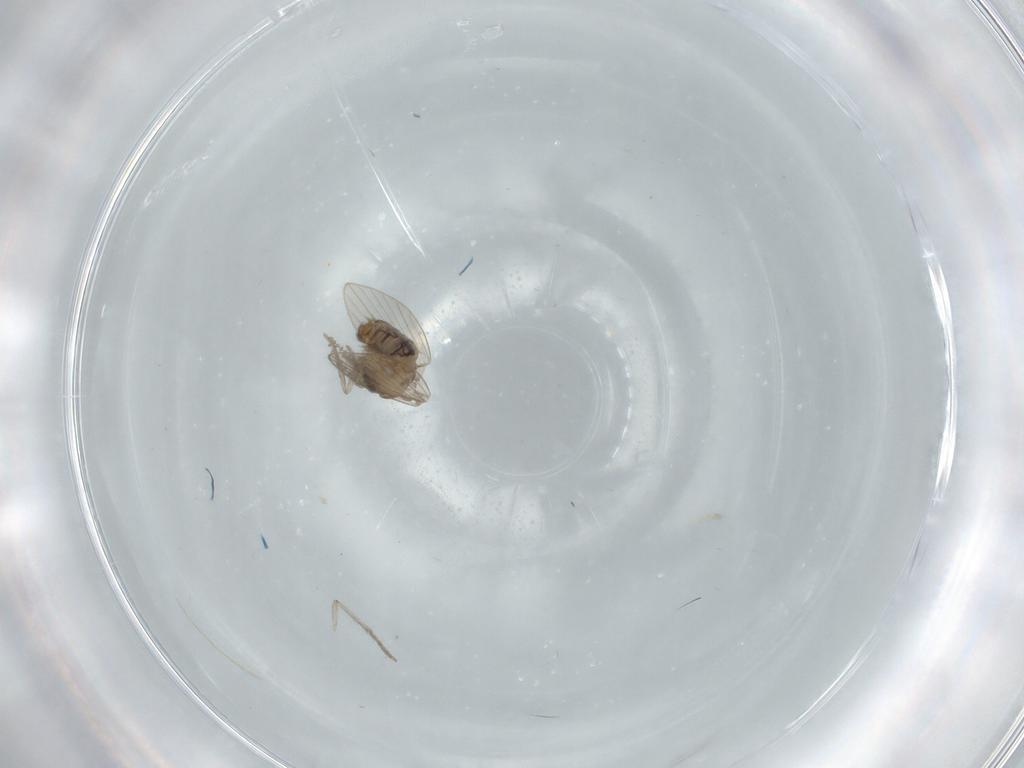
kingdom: Animalia
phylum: Arthropoda
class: Insecta
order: Diptera
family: Psychodidae
